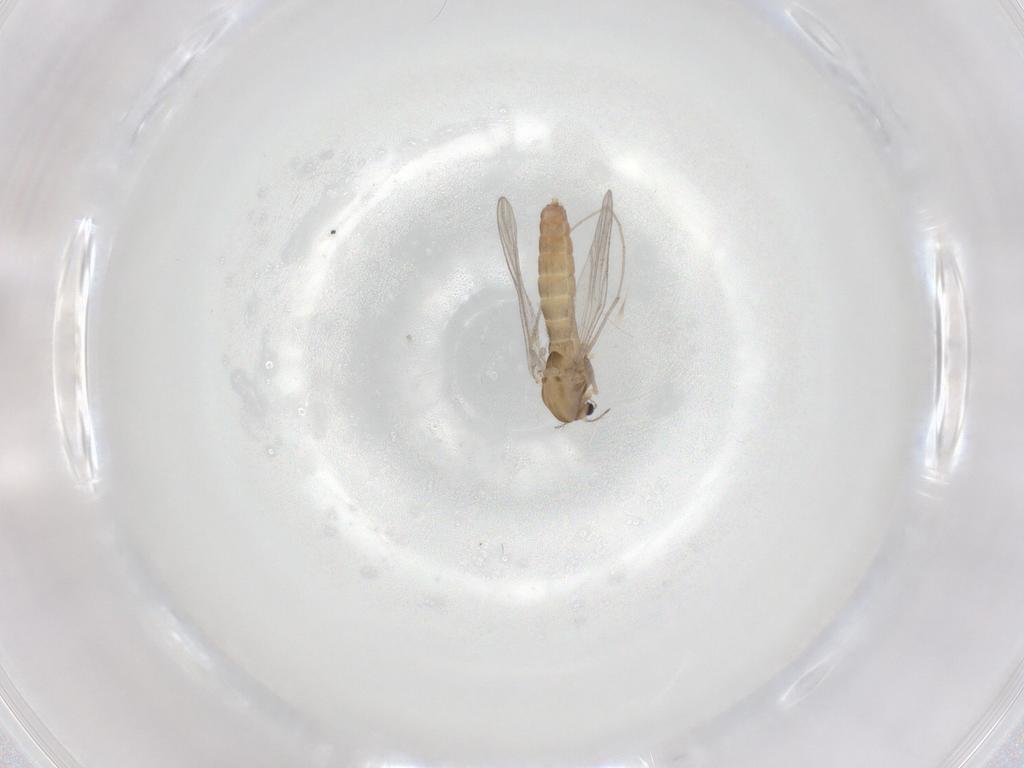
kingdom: Animalia
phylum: Arthropoda
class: Insecta
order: Diptera
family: Chironomidae
